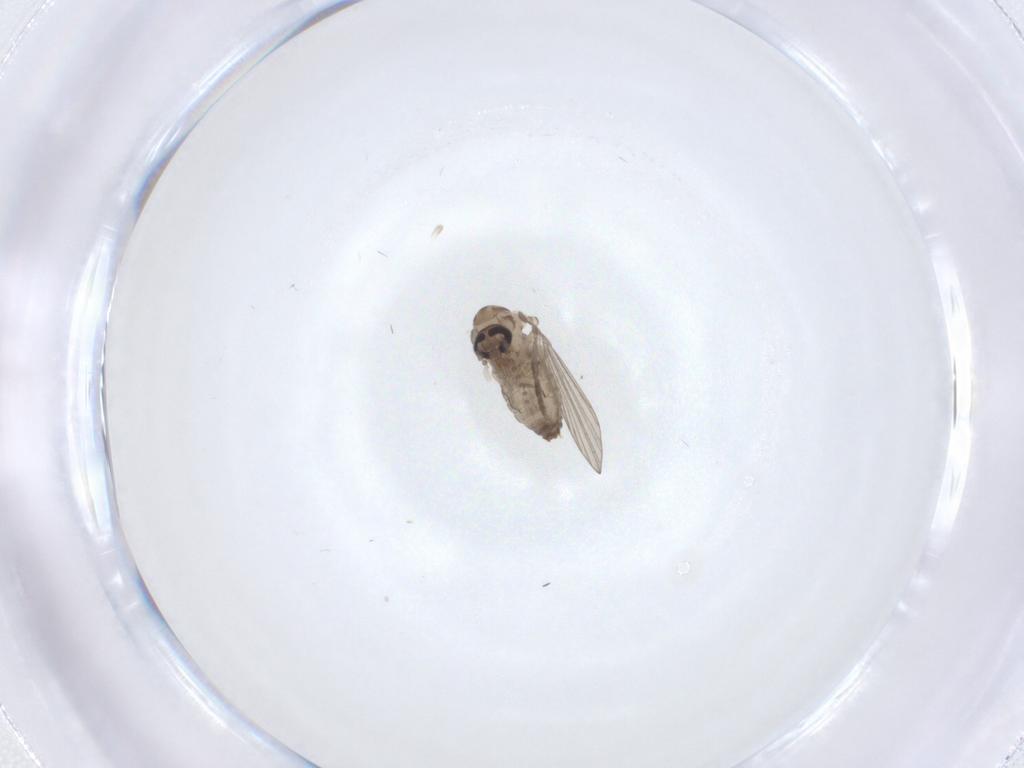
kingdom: Animalia
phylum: Arthropoda
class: Insecta
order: Diptera
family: Psychodidae
